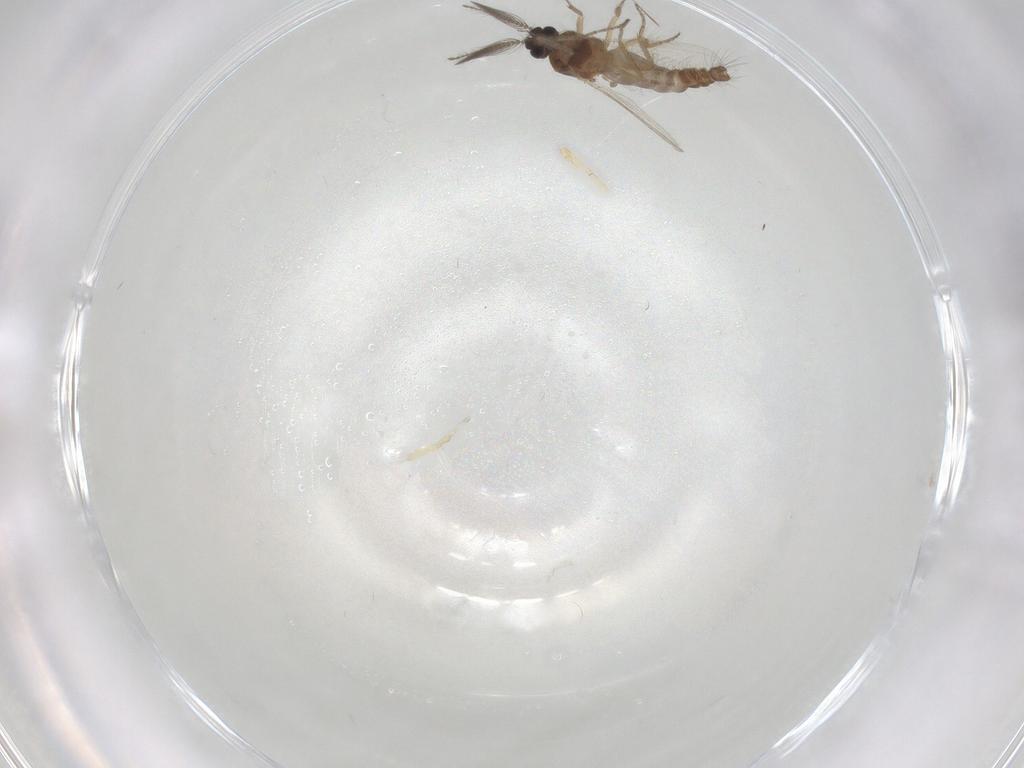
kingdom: Animalia
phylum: Arthropoda
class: Insecta
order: Diptera
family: Ceratopogonidae
